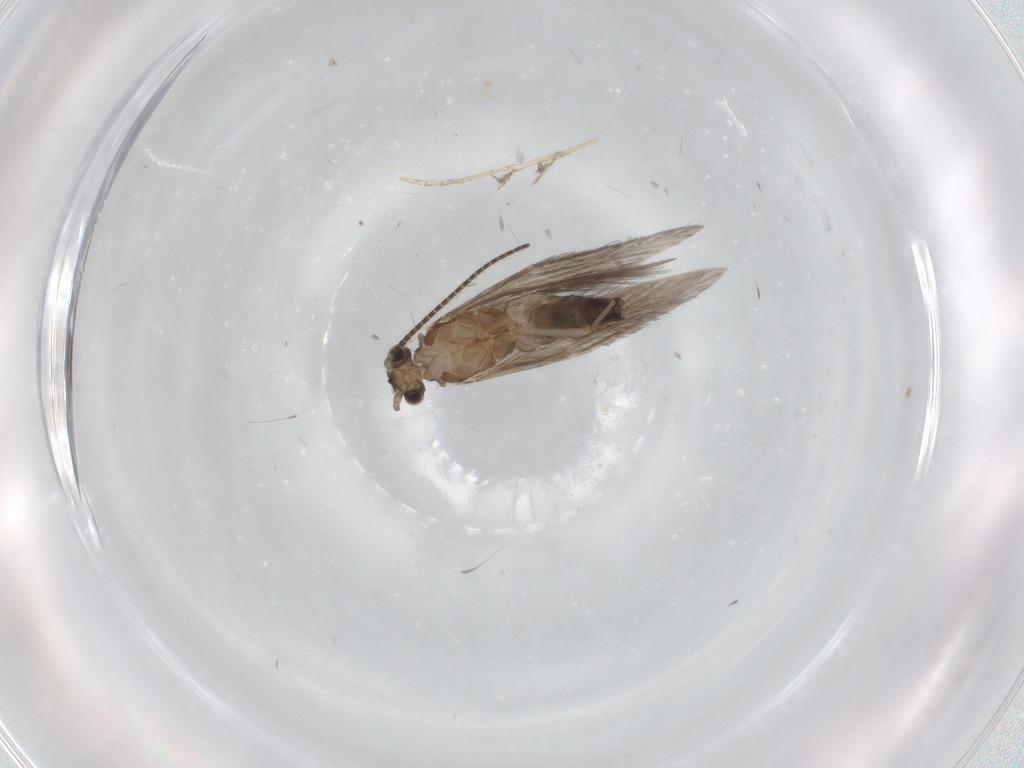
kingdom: Animalia
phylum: Arthropoda
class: Insecta
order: Trichoptera
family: Hydroptilidae
